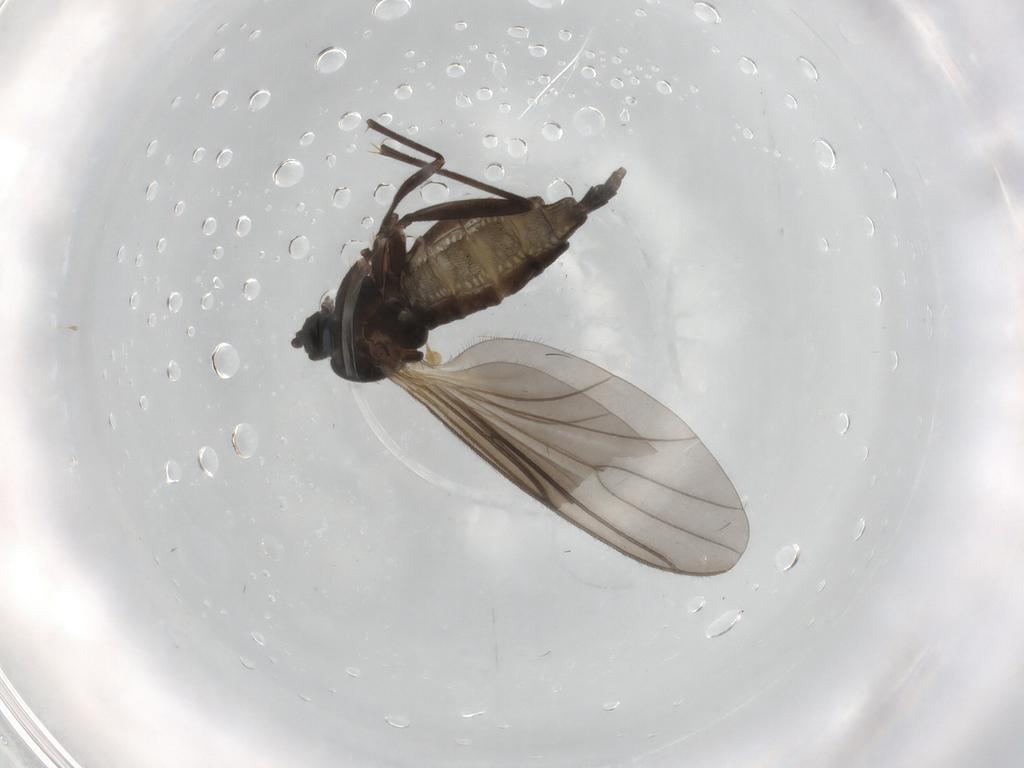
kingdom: Animalia
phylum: Arthropoda
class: Insecta
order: Diptera
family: Sciaridae
